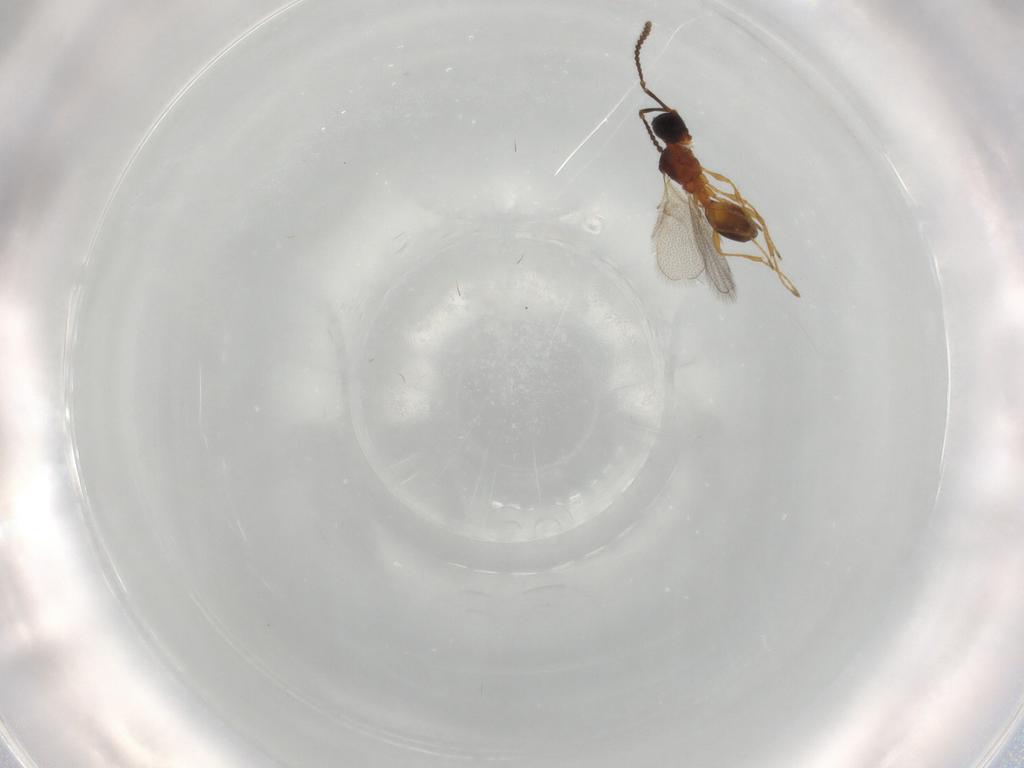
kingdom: Animalia
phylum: Arthropoda
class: Insecta
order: Hymenoptera
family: Diapriidae
